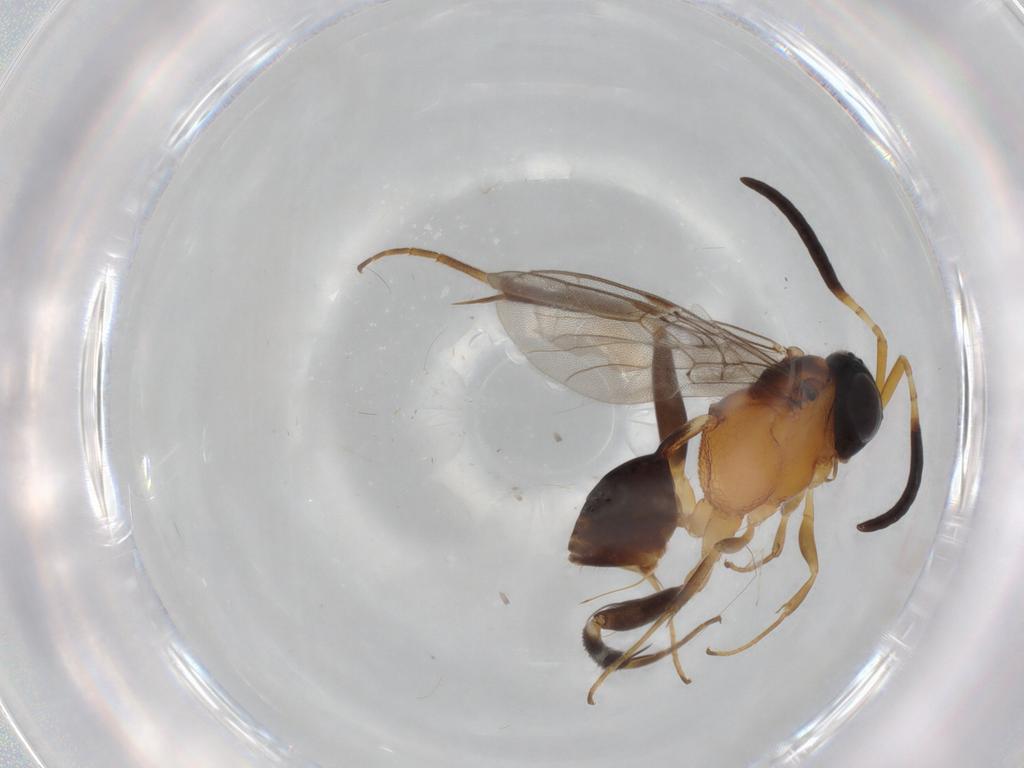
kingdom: Animalia
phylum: Arthropoda
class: Insecta
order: Hymenoptera
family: Evaniidae
